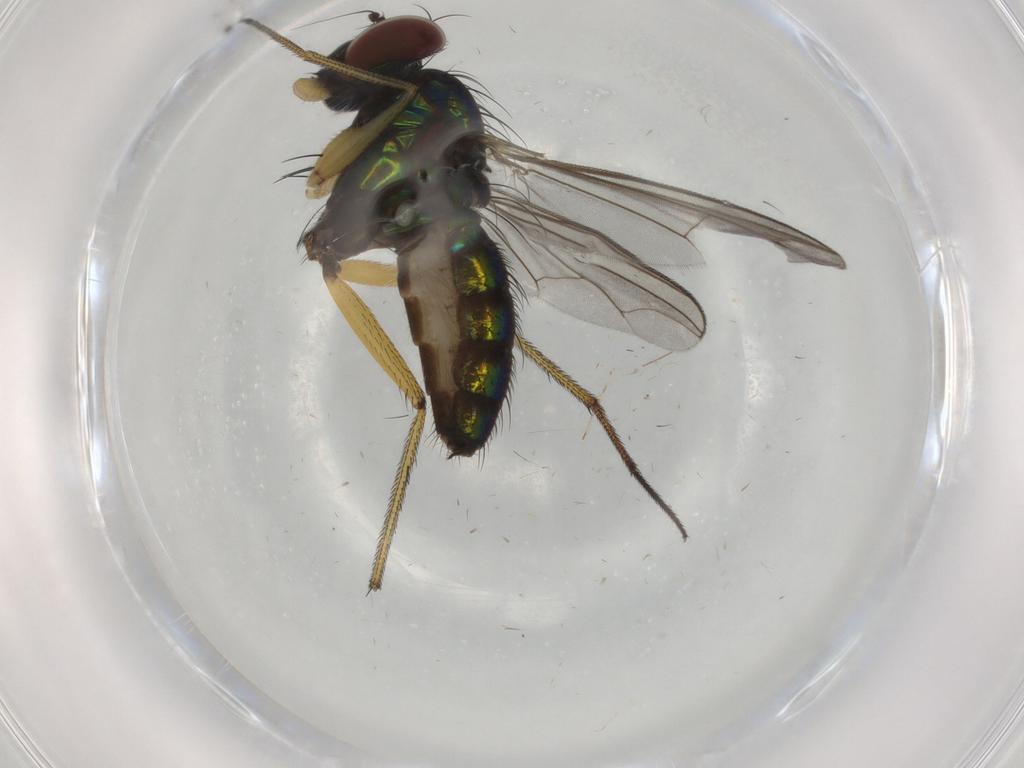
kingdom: Animalia
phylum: Arthropoda
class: Insecta
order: Diptera
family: Dolichopodidae
